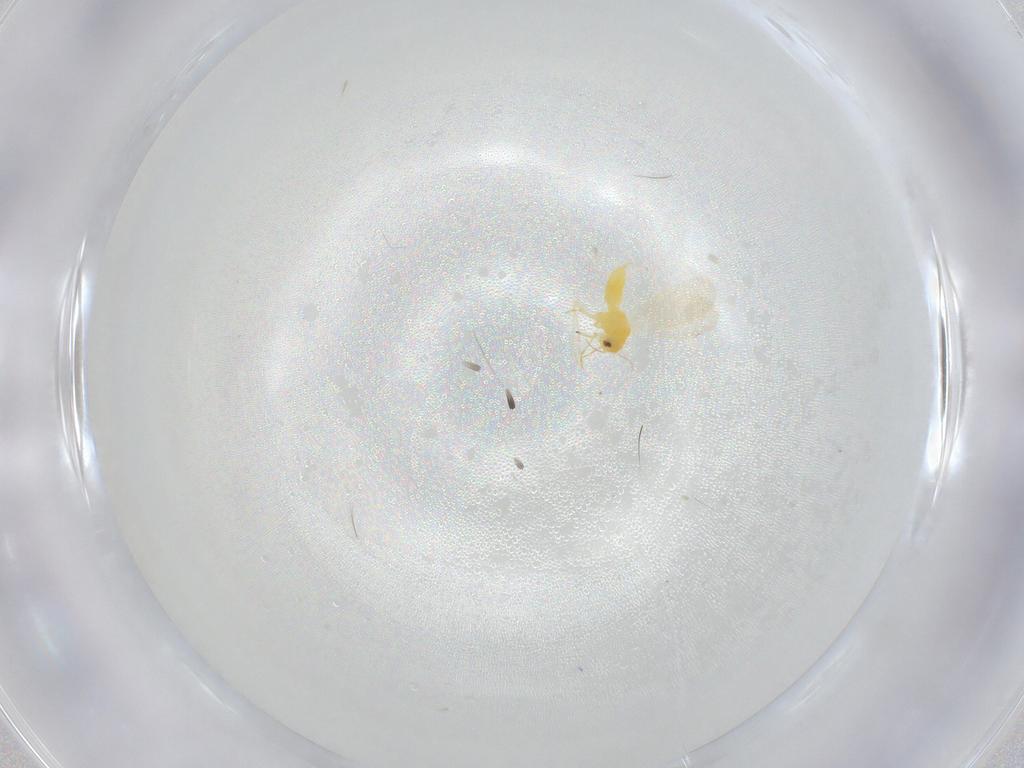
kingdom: Animalia
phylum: Arthropoda
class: Insecta
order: Hemiptera
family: Aleyrodidae
